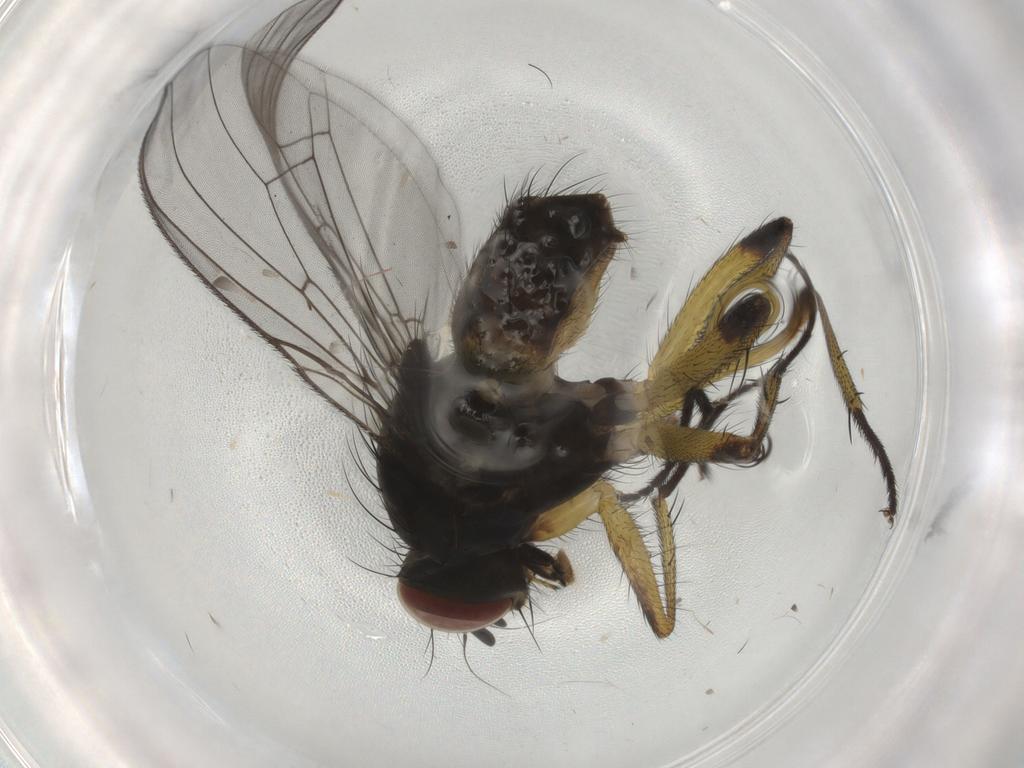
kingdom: Animalia
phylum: Arthropoda
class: Insecta
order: Diptera
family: Muscidae
